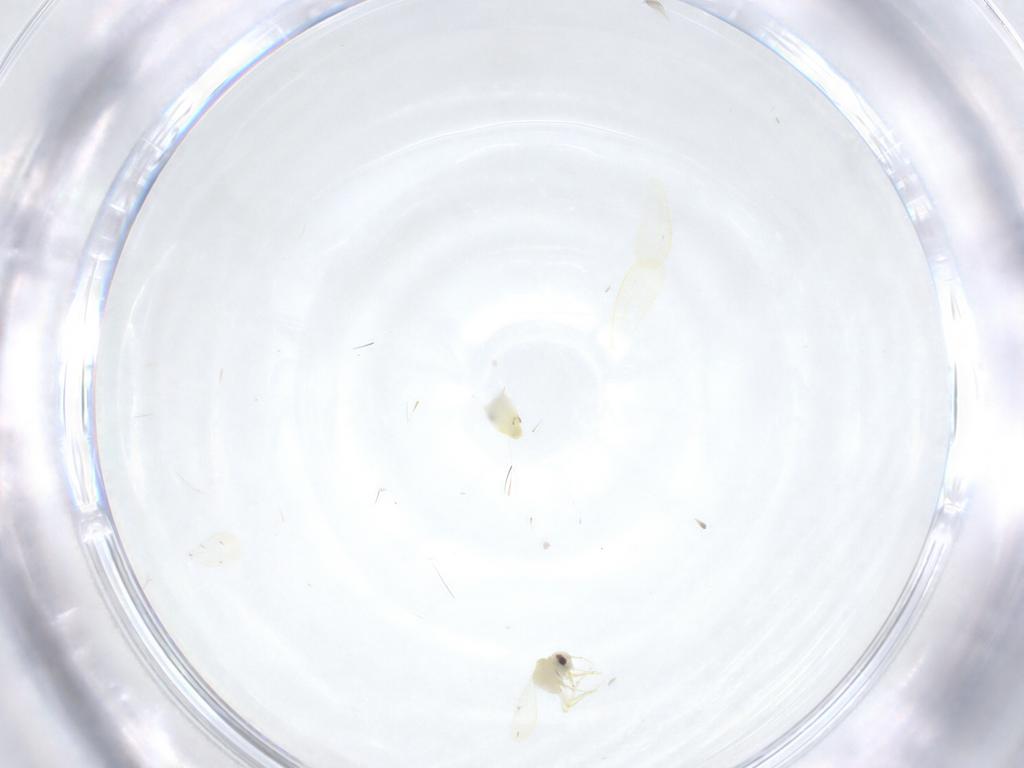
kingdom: Animalia
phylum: Arthropoda
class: Insecta
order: Hemiptera
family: Aleyrodidae
